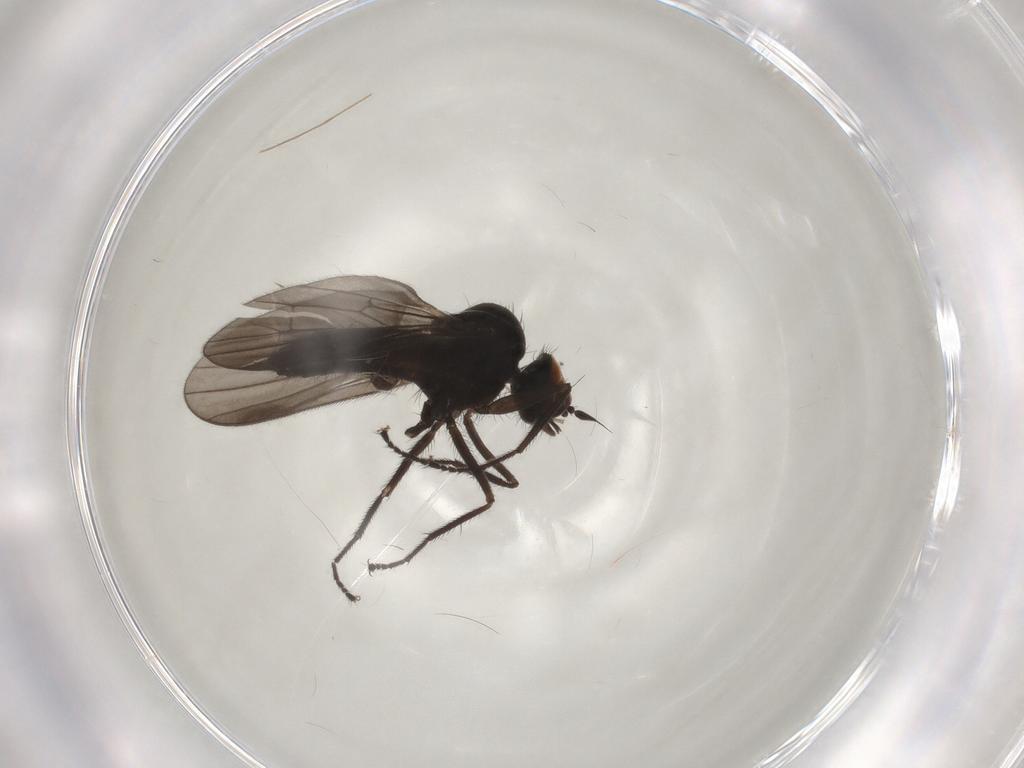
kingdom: Animalia
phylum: Arthropoda
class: Insecta
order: Diptera
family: Hybotidae
